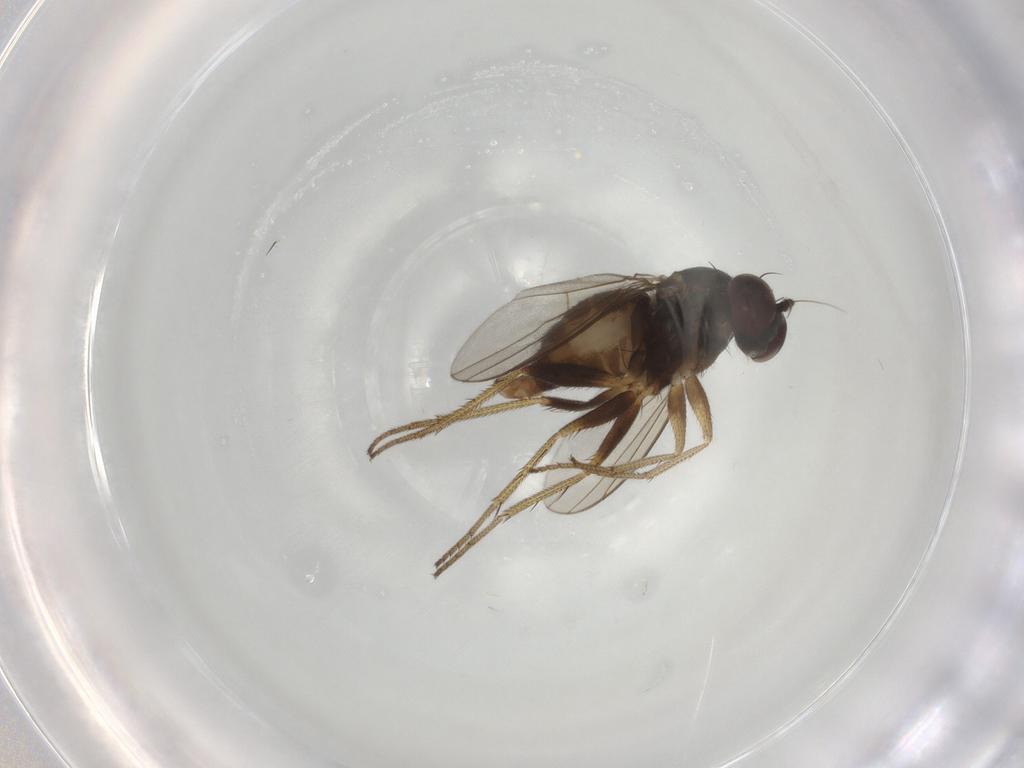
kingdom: Animalia
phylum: Arthropoda
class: Insecta
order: Diptera
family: Dolichopodidae
